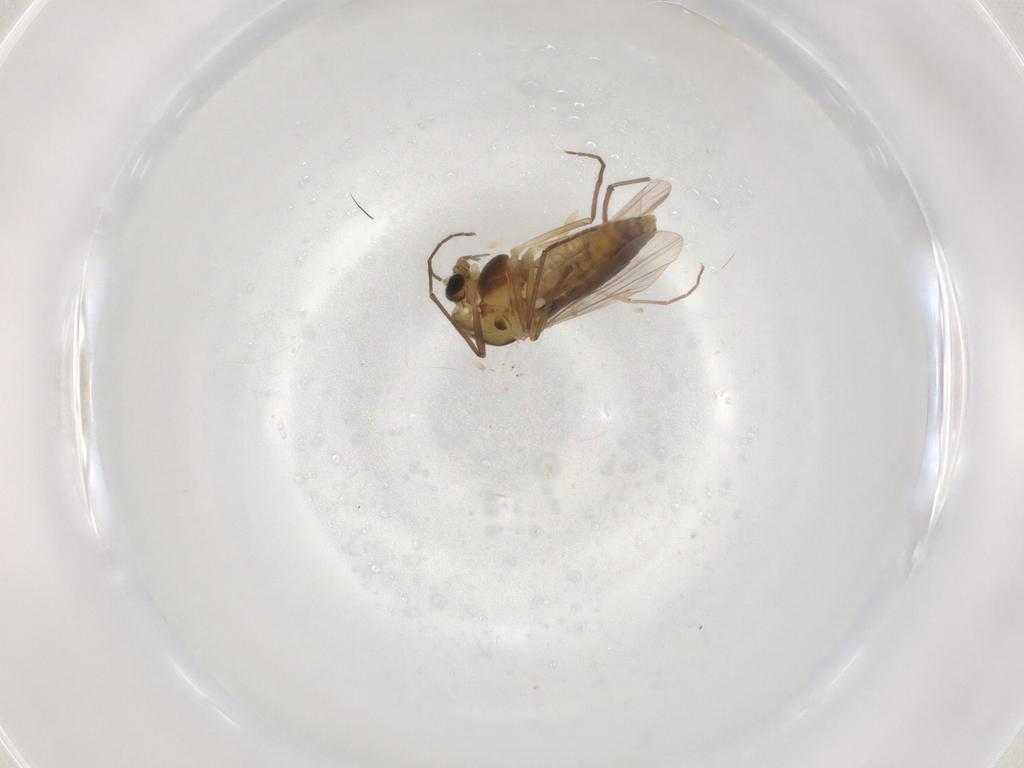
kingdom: Animalia
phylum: Arthropoda
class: Insecta
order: Diptera
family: Chironomidae
